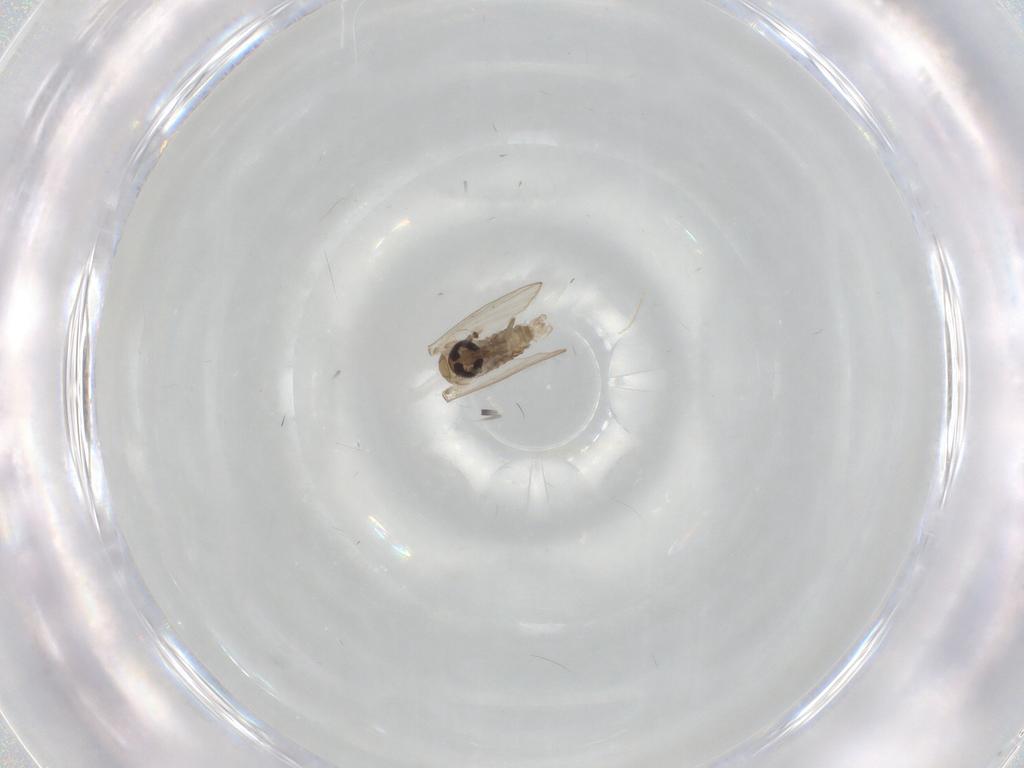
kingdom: Animalia
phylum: Arthropoda
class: Insecta
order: Diptera
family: Psychodidae
